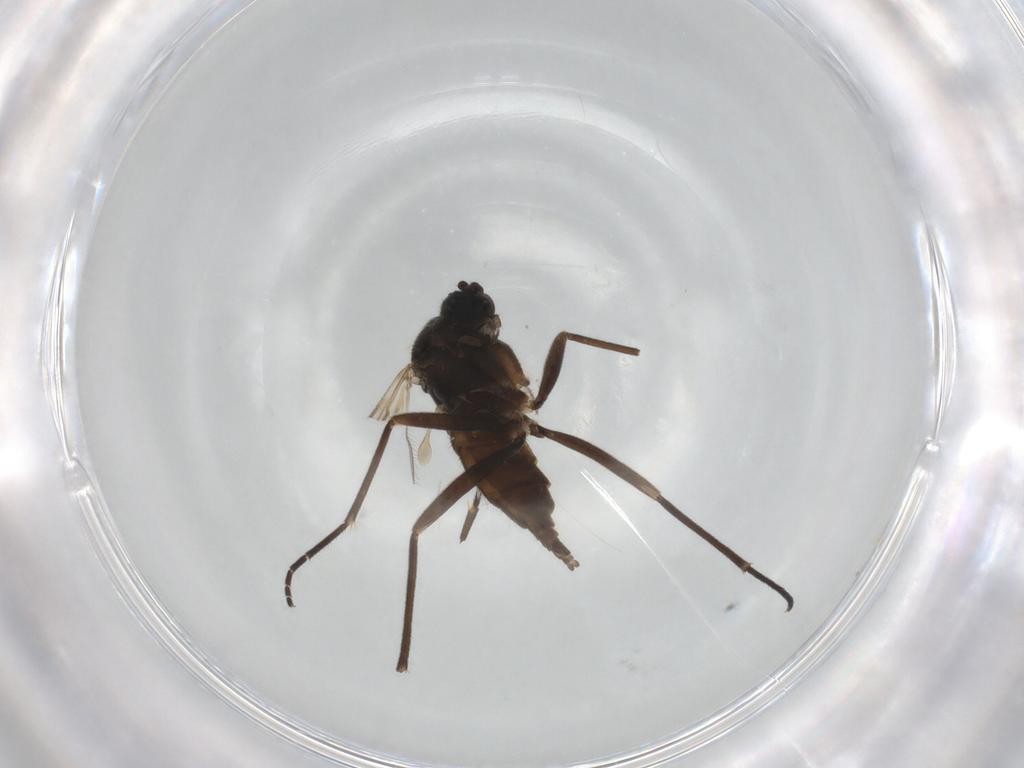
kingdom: Animalia
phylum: Arthropoda
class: Insecta
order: Diptera
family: Sciaridae
